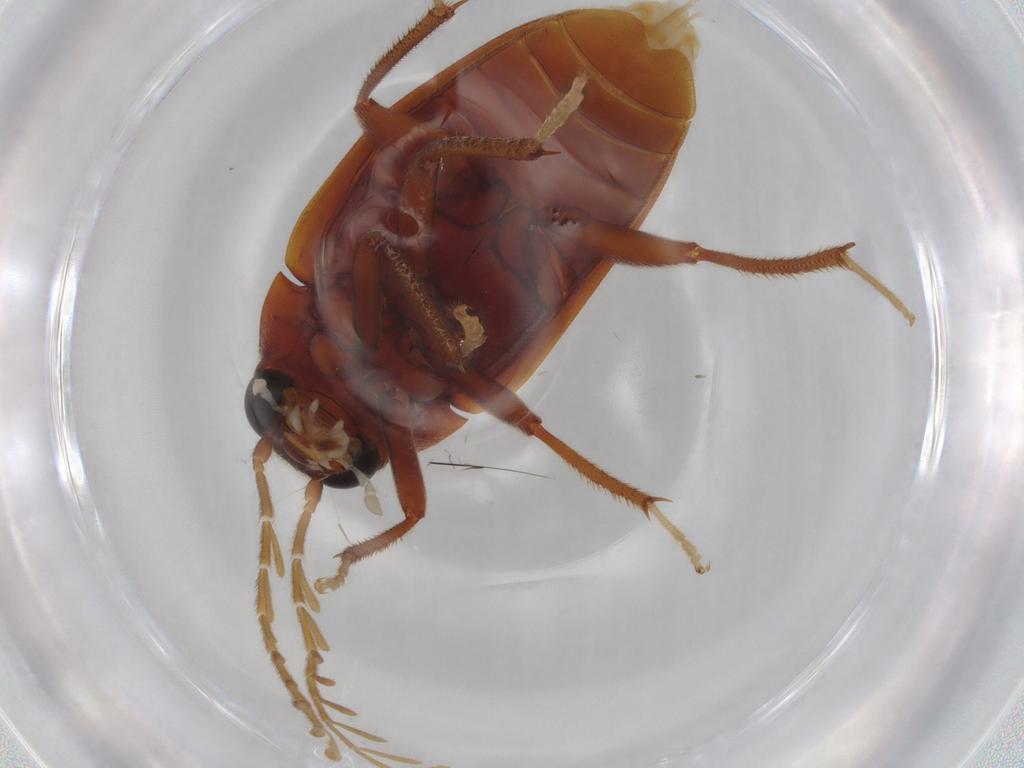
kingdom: Animalia
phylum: Arthropoda
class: Insecta
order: Coleoptera
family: Ptilodactylidae
